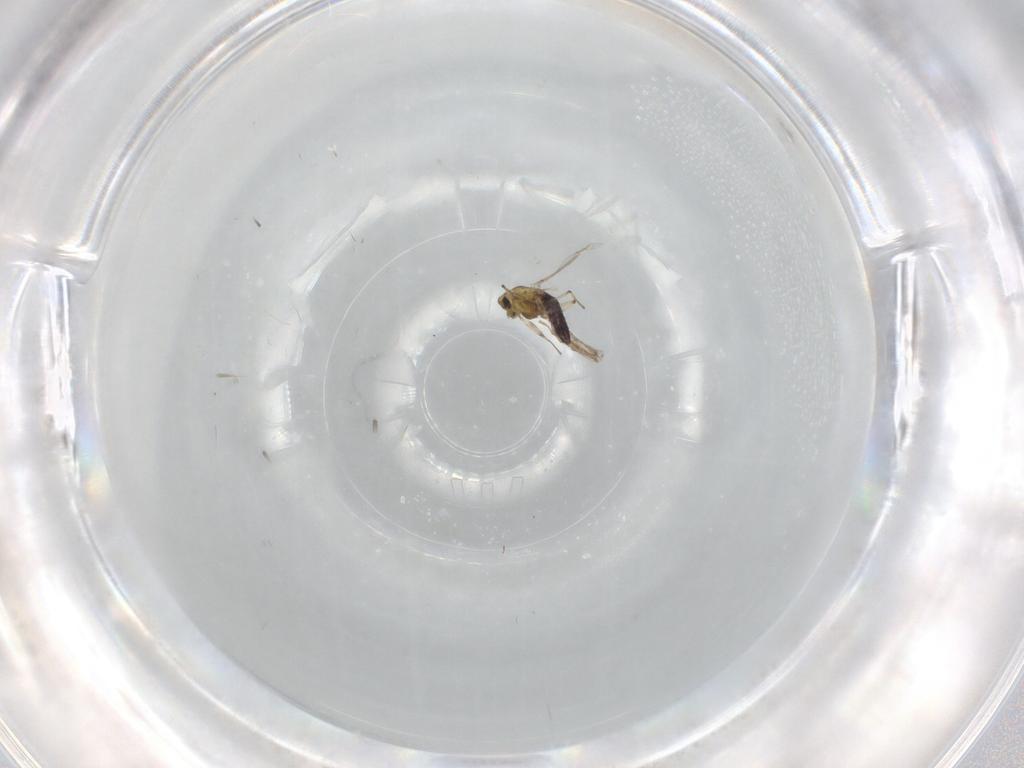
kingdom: Animalia
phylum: Arthropoda
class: Insecta
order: Diptera
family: Chironomidae
